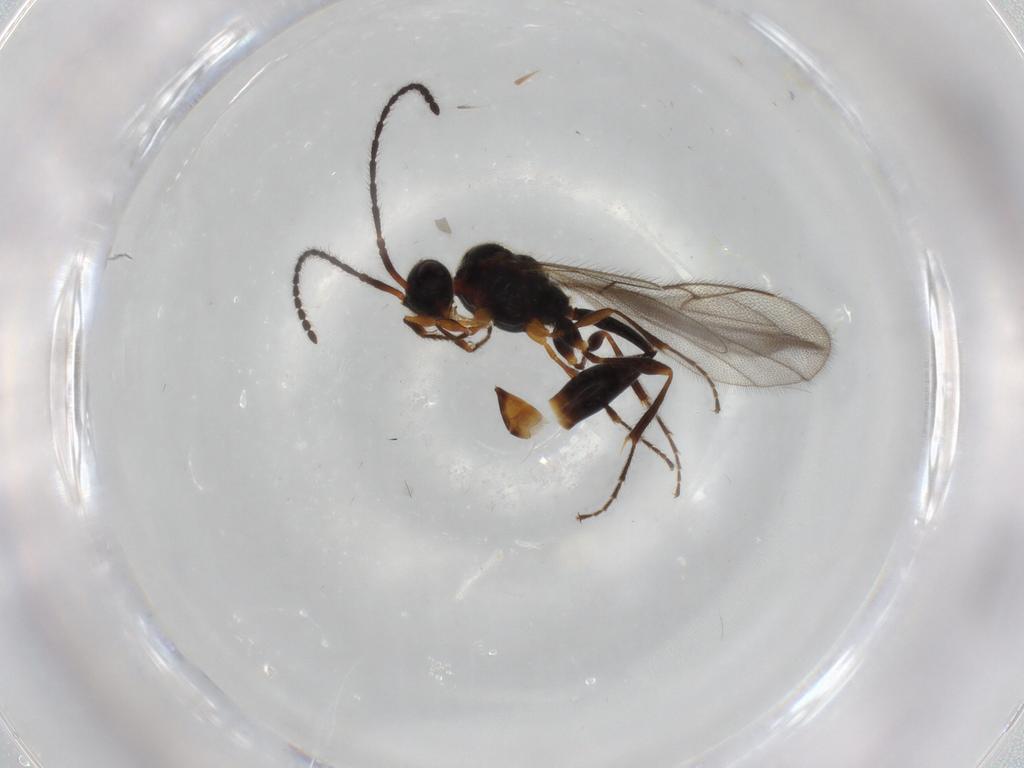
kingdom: Animalia
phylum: Arthropoda
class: Insecta
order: Hymenoptera
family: Diapriidae
